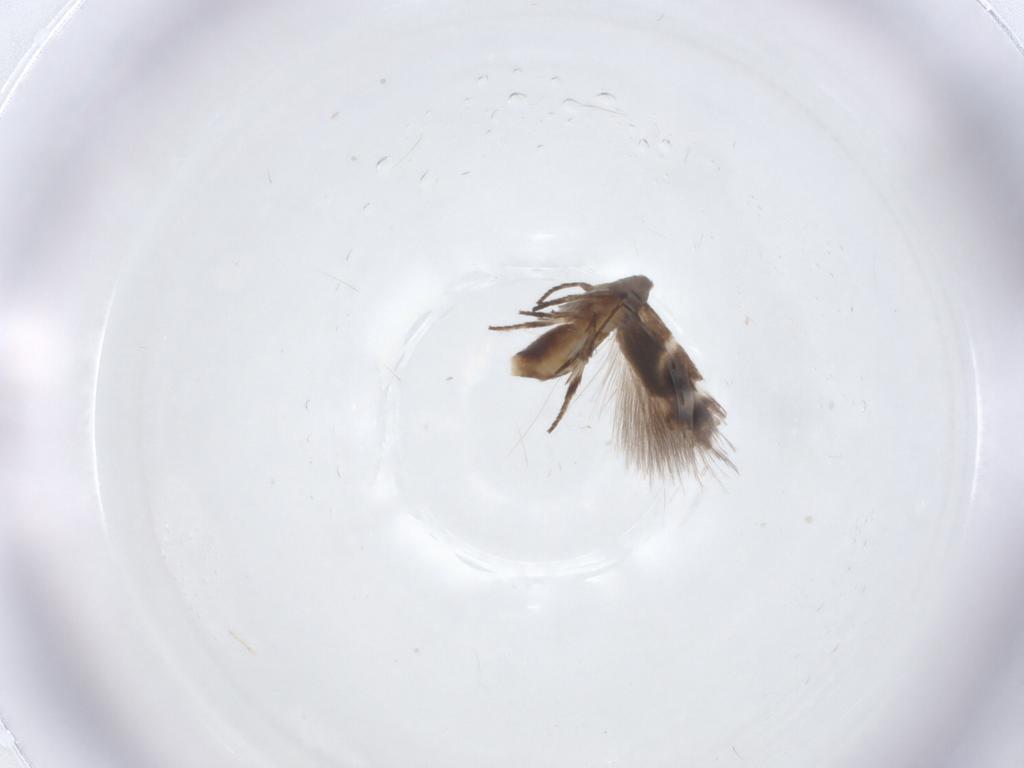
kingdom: Animalia
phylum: Arthropoda
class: Insecta
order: Lepidoptera
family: Lyonetiidae
